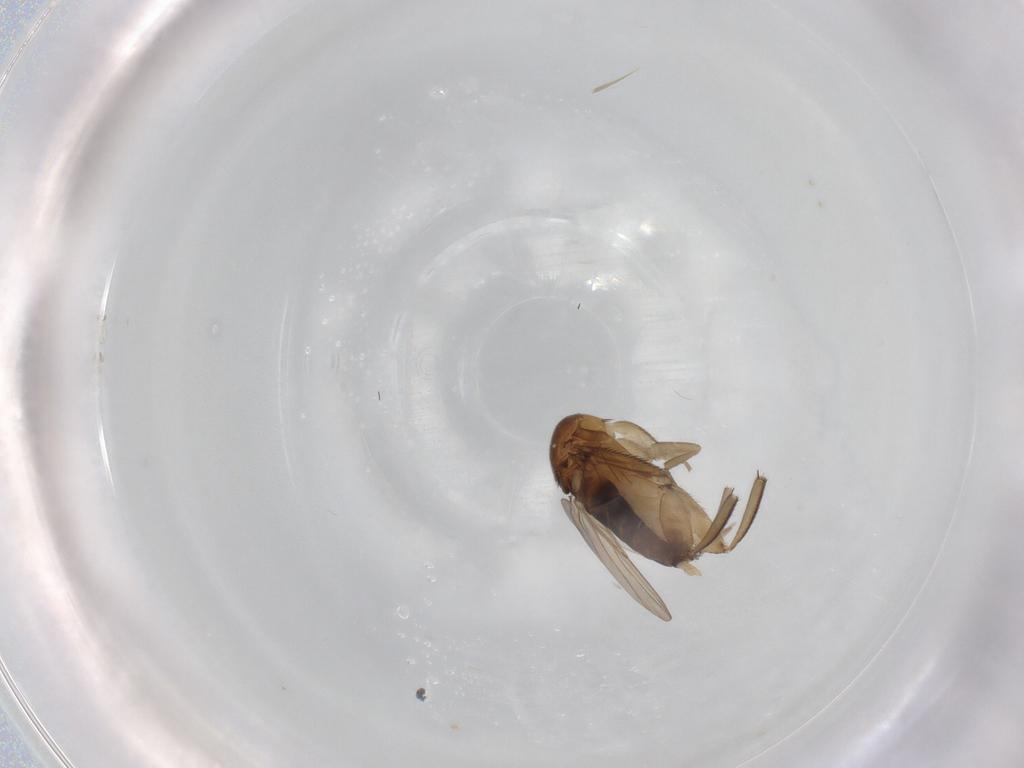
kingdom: Animalia
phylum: Arthropoda
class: Insecta
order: Diptera
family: Phoridae
